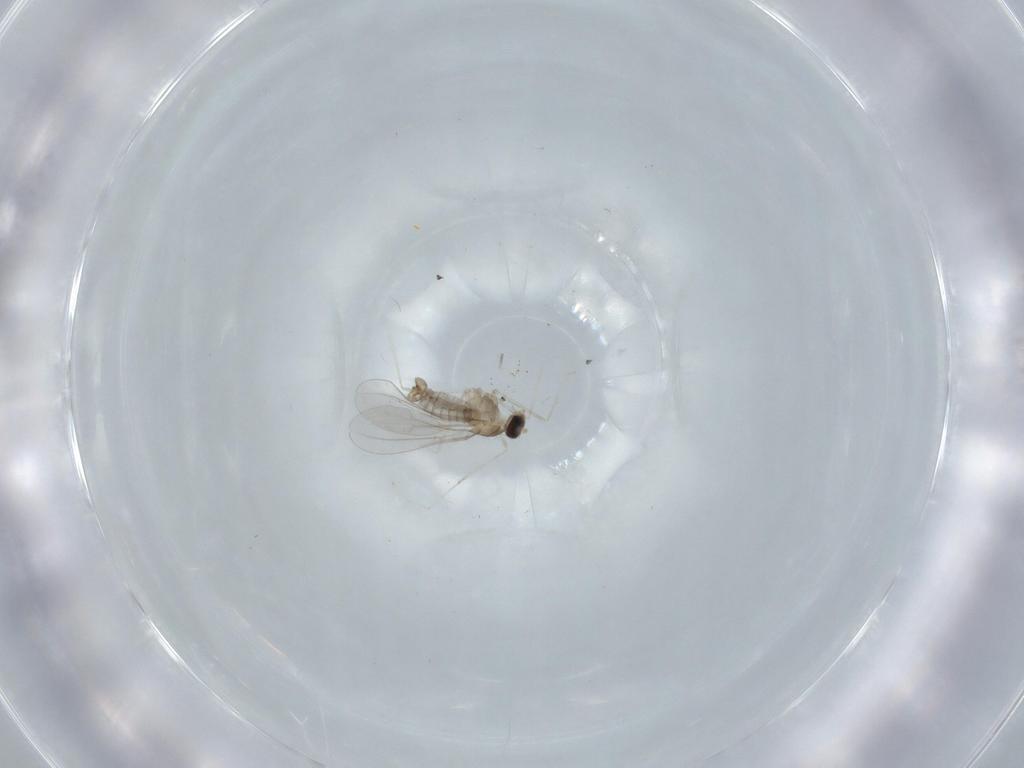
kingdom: Animalia
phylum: Arthropoda
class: Insecta
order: Diptera
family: Cecidomyiidae
